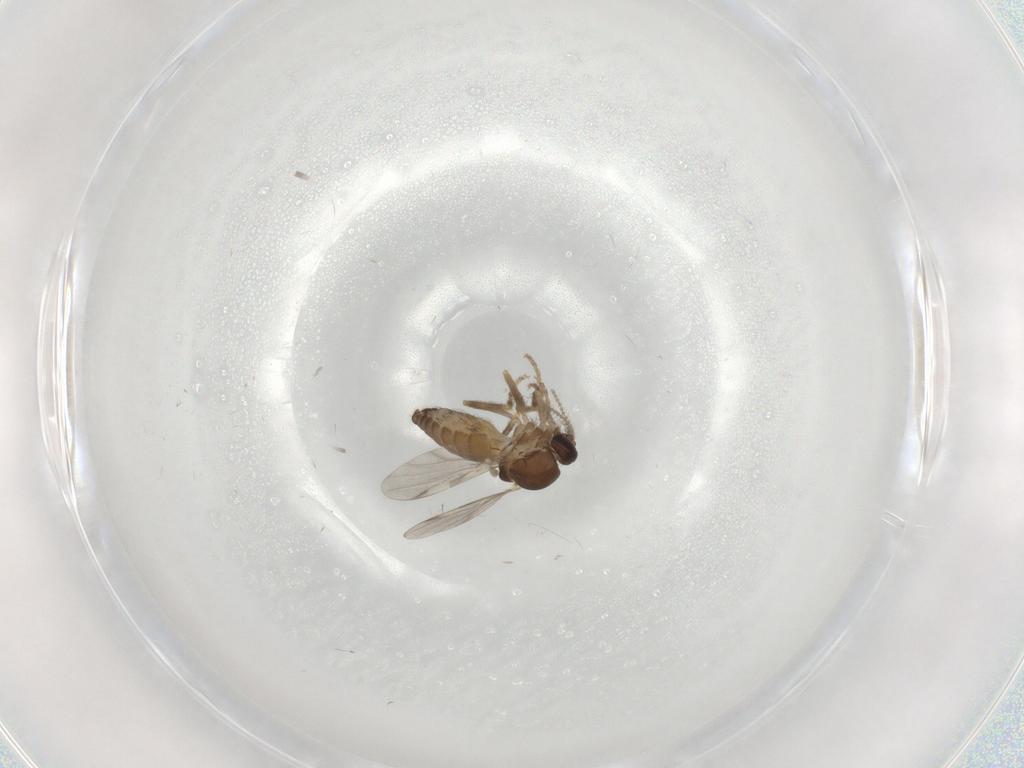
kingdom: Animalia
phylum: Arthropoda
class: Insecta
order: Diptera
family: Ceratopogonidae
